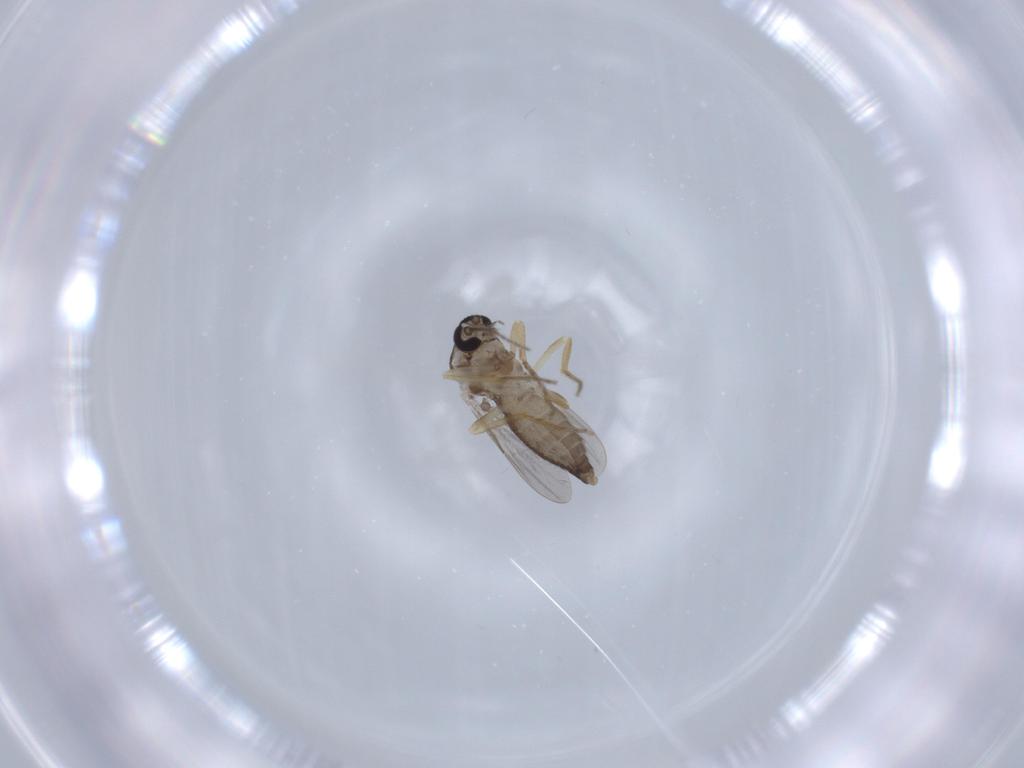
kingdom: Animalia
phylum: Arthropoda
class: Insecta
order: Diptera
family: Ceratopogonidae
